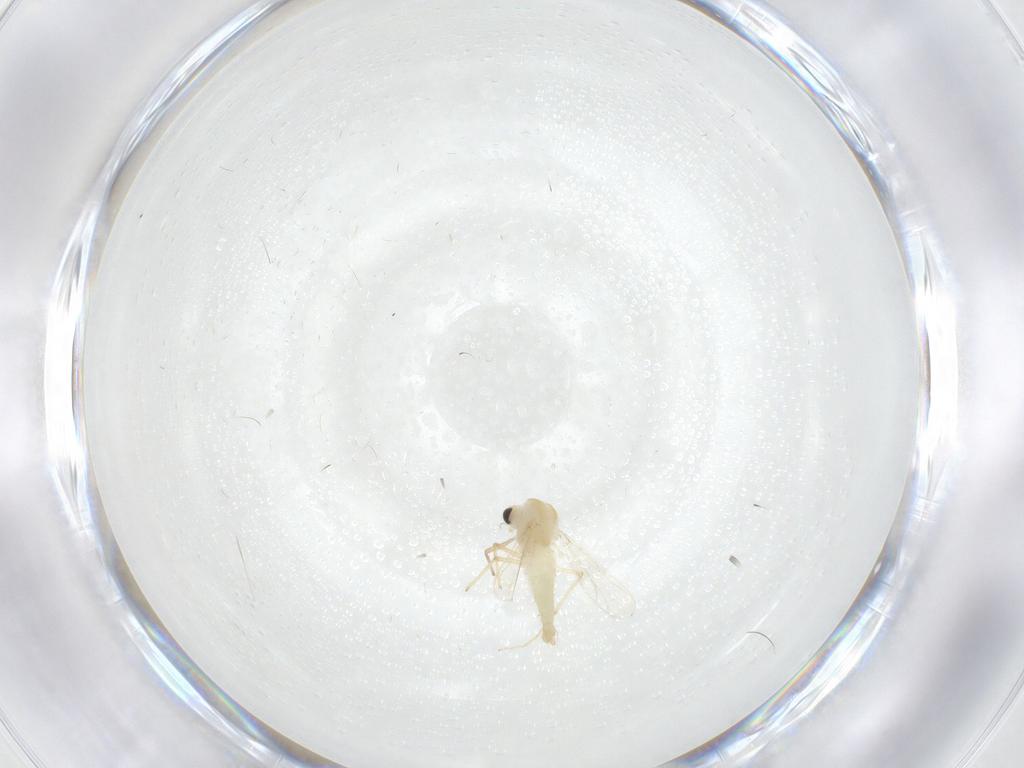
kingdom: Animalia
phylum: Arthropoda
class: Insecta
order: Diptera
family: Chironomidae
